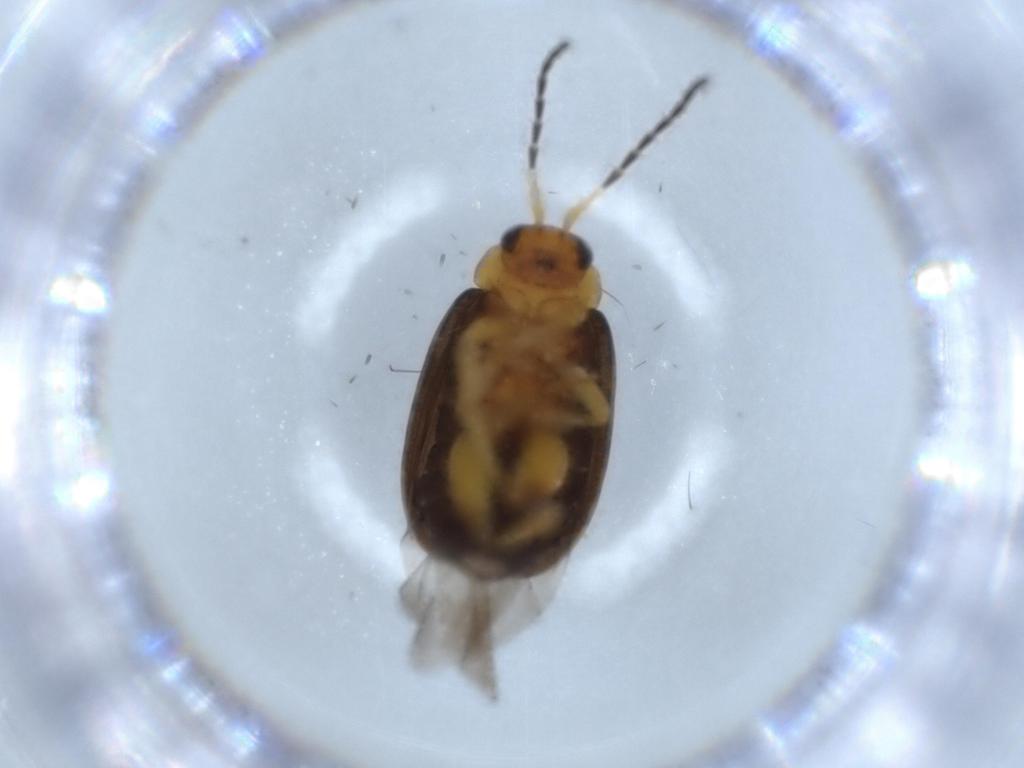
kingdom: Animalia
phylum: Arthropoda
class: Insecta
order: Coleoptera
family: Chrysomelidae
